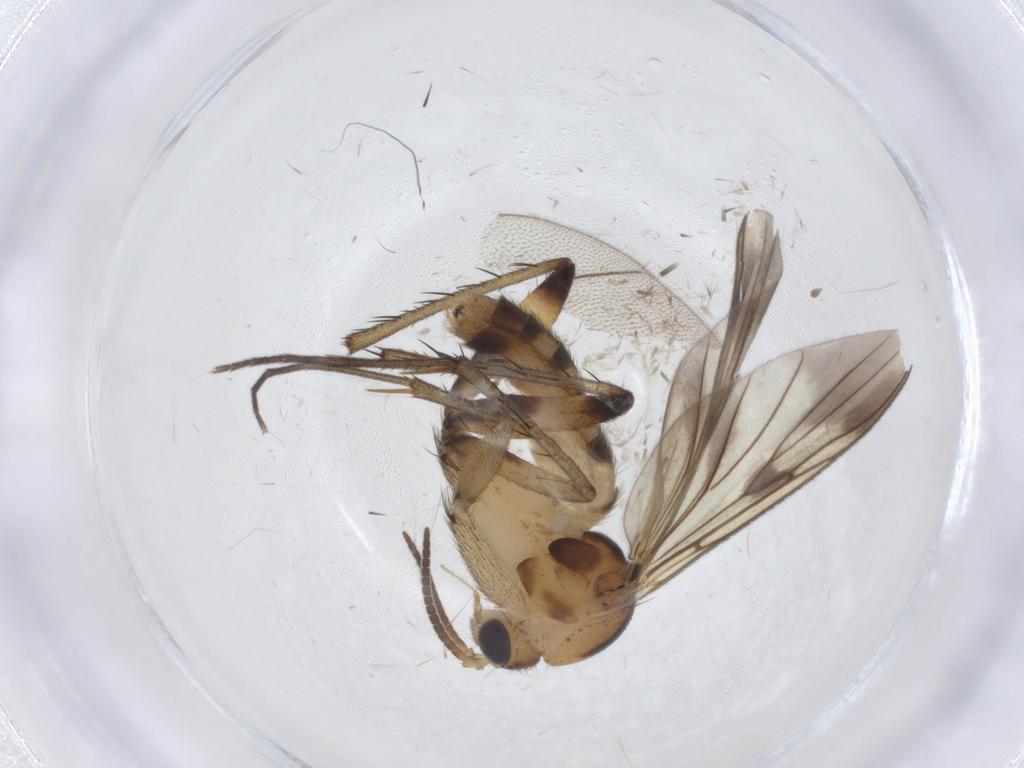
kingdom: Animalia
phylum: Arthropoda
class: Insecta
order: Diptera
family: Mycetophilidae
